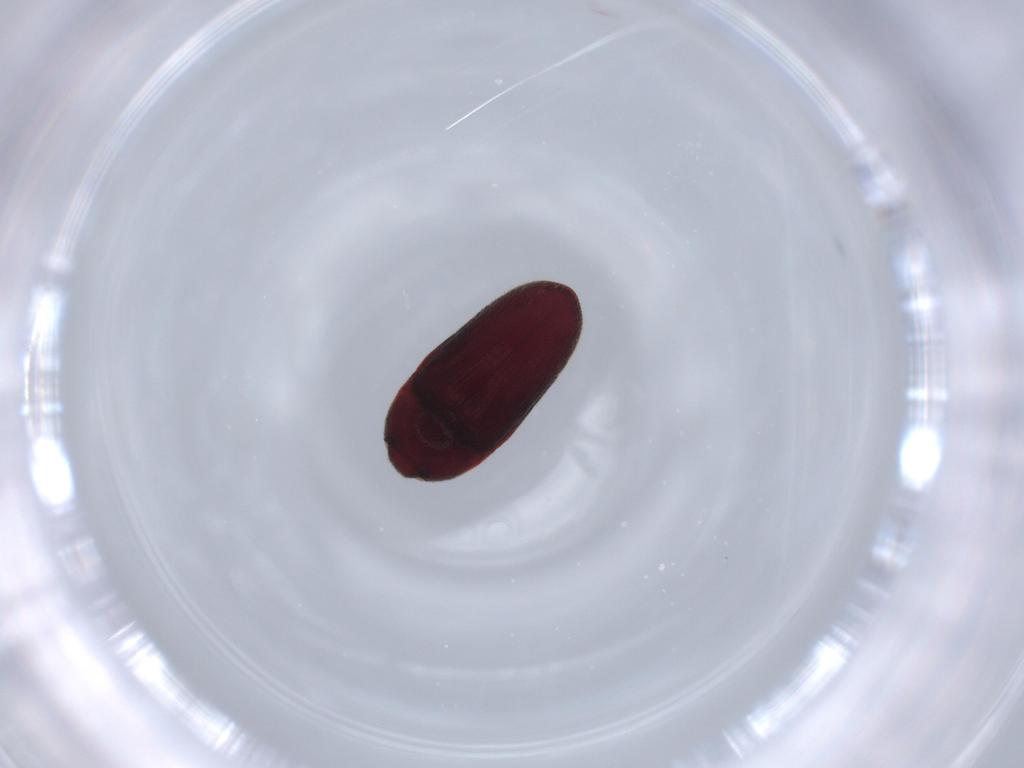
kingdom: Animalia
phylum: Arthropoda
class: Insecta
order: Coleoptera
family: Throscidae
